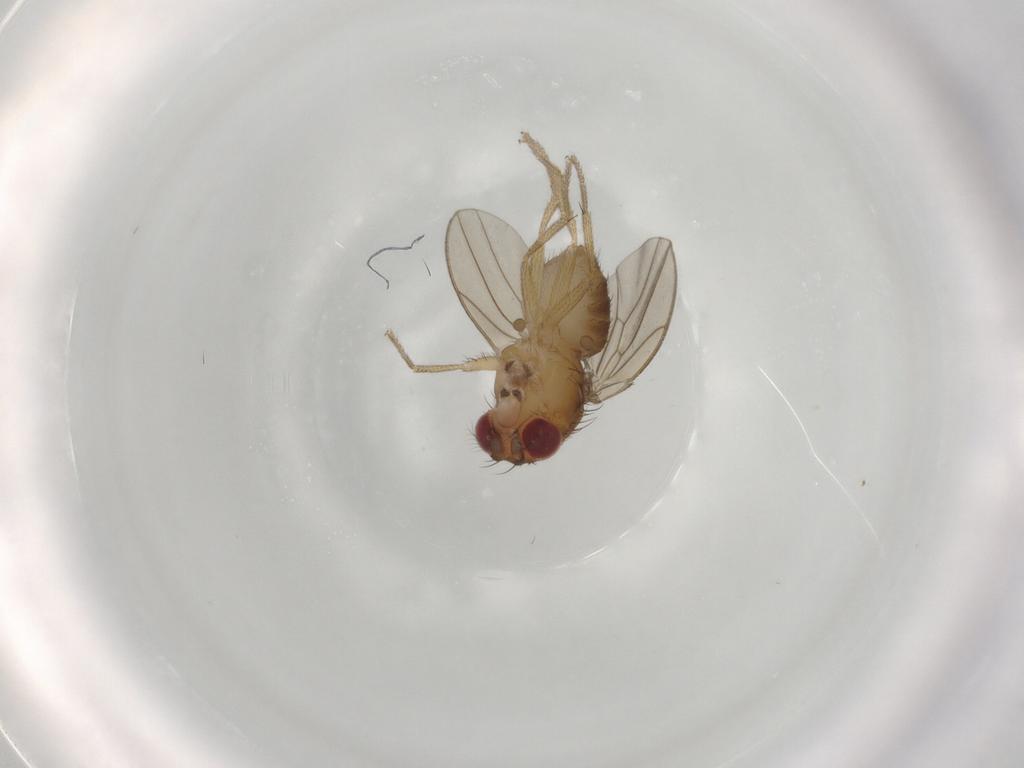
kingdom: Animalia
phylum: Arthropoda
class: Insecta
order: Diptera
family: Drosophilidae
